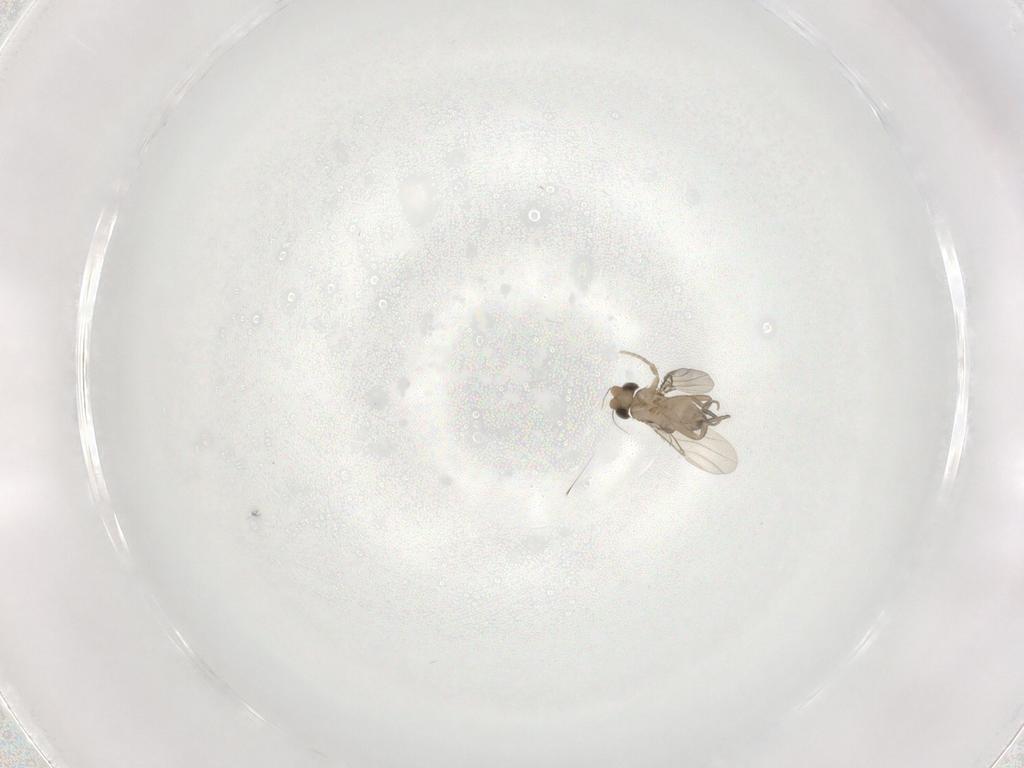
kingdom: Animalia
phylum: Arthropoda
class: Insecta
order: Diptera
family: Phoridae
